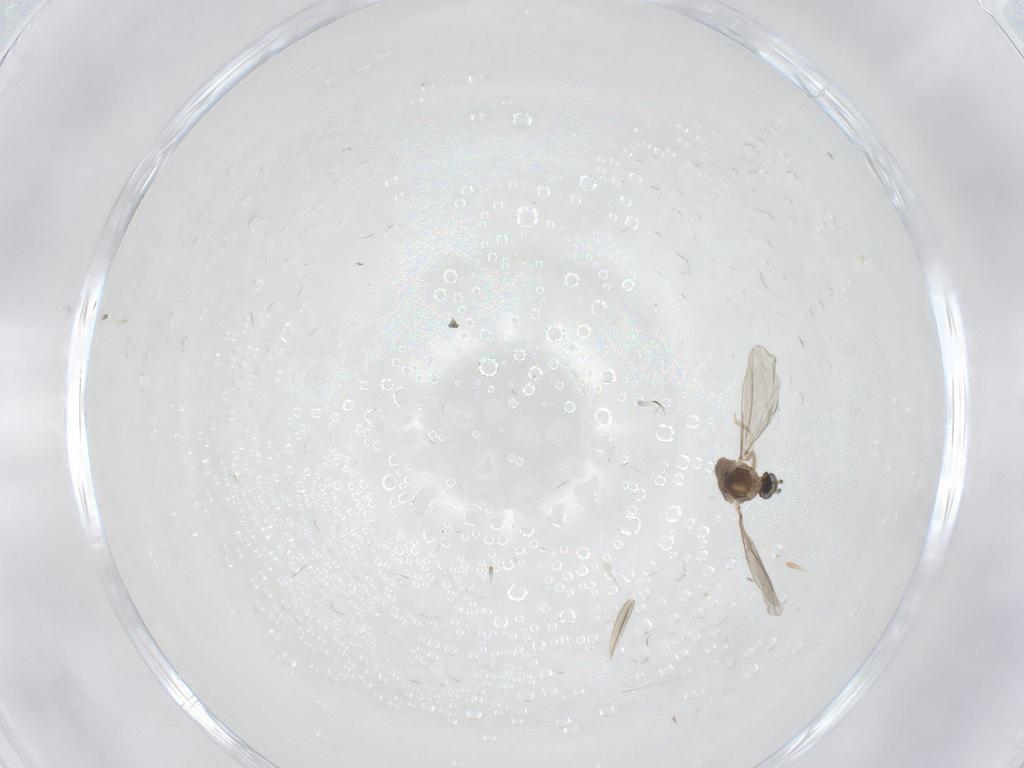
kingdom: Animalia
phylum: Arthropoda
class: Insecta
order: Diptera
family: Cecidomyiidae
